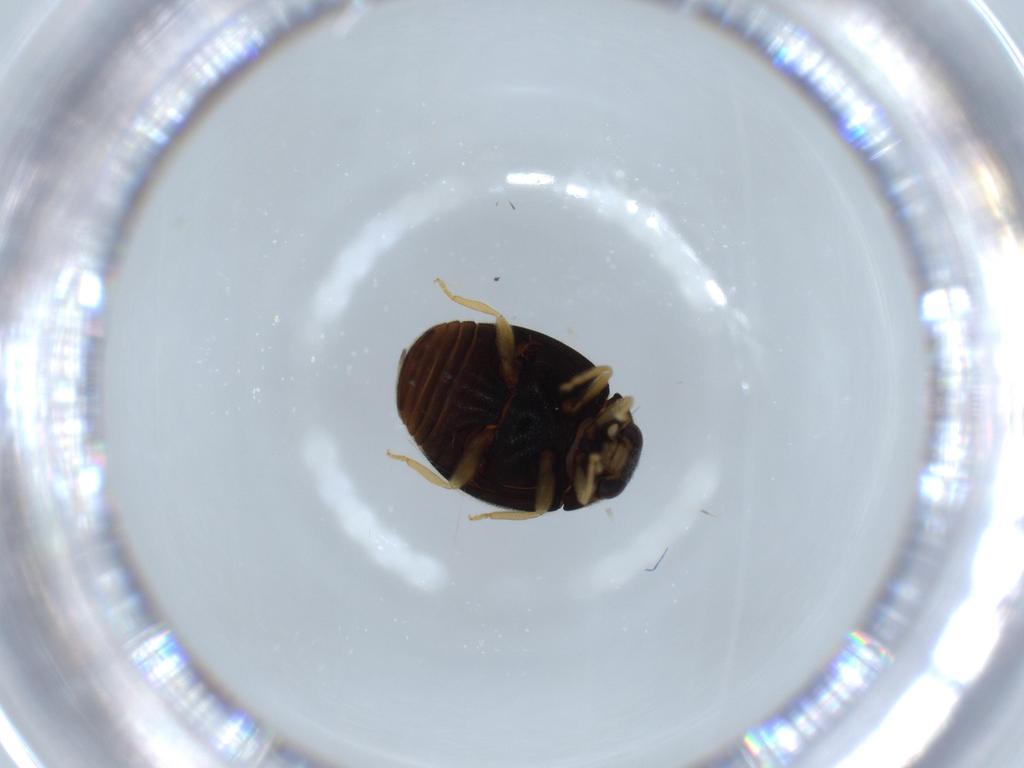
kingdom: Animalia
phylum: Arthropoda
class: Insecta
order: Coleoptera
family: Coccinellidae
